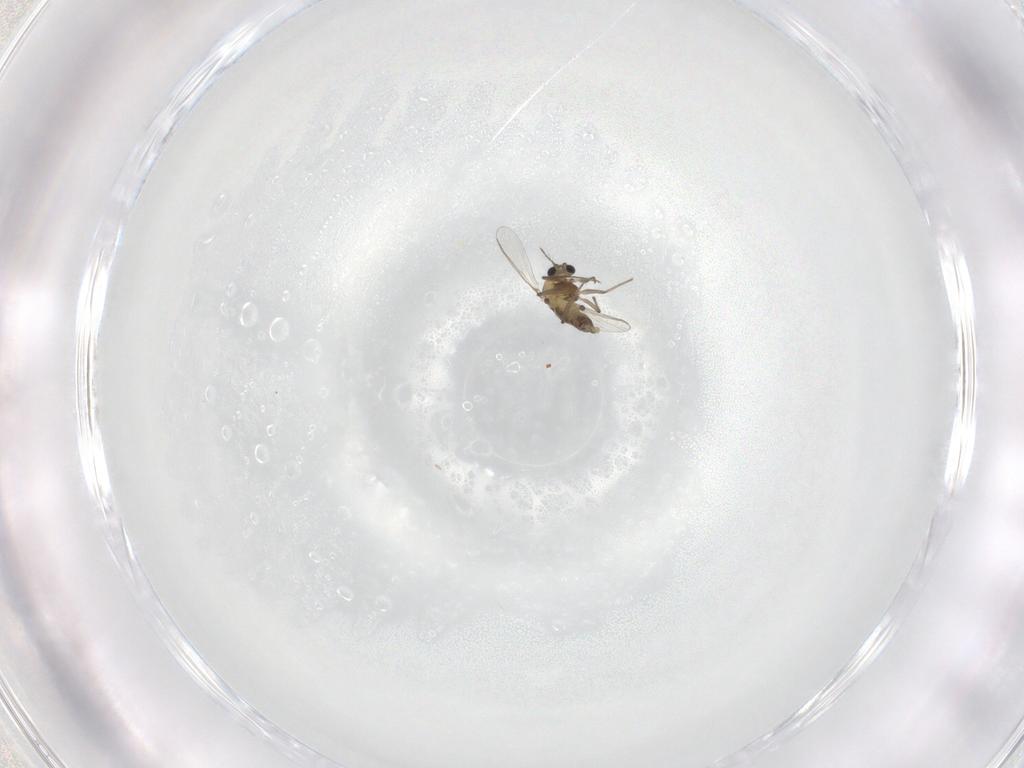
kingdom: Animalia
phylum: Arthropoda
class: Insecta
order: Diptera
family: Chironomidae
